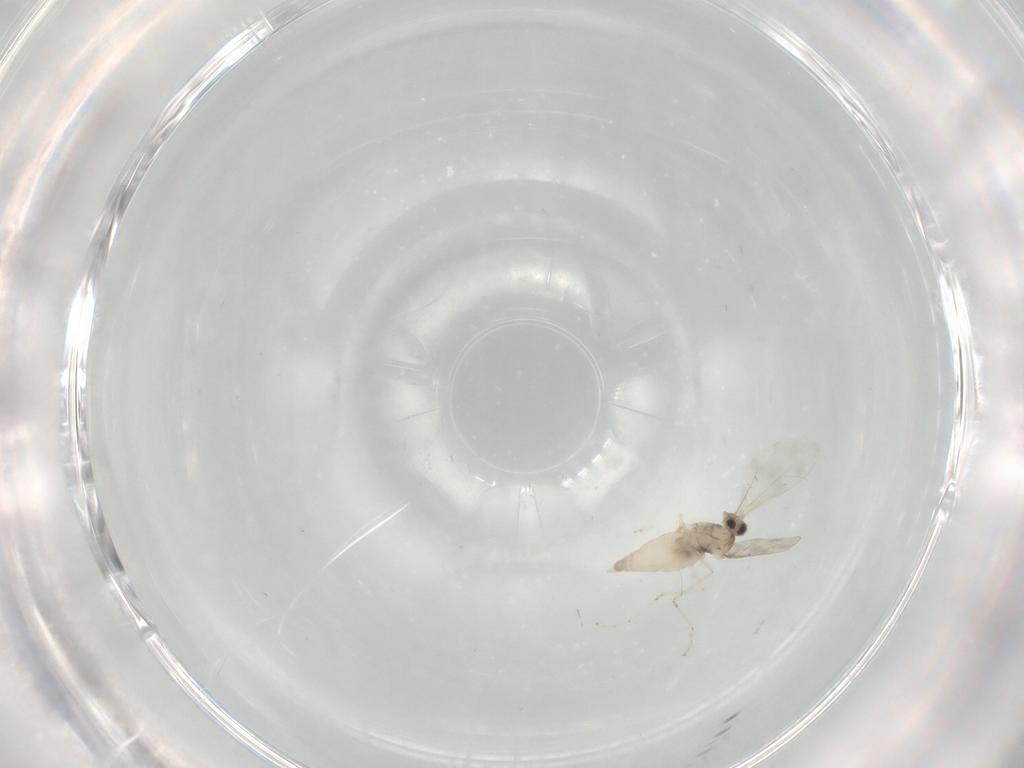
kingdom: Animalia
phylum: Arthropoda
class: Insecta
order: Diptera
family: Cecidomyiidae
